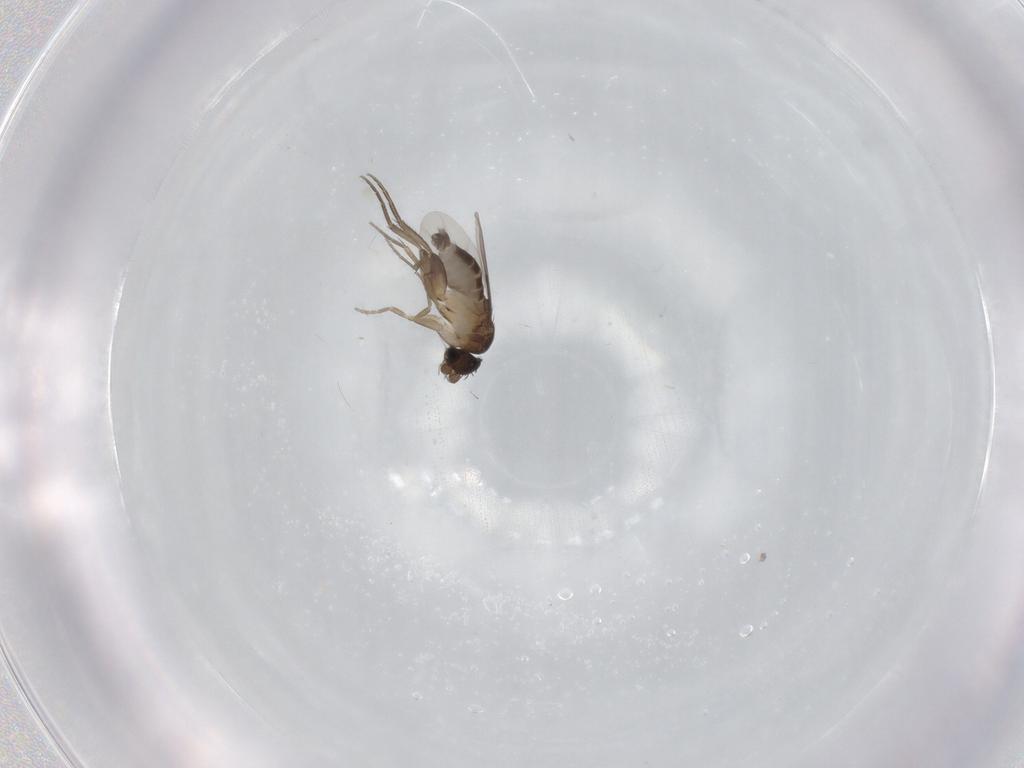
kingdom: Animalia
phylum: Arthropoda
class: Insecta
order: Diptera
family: Phoridae
